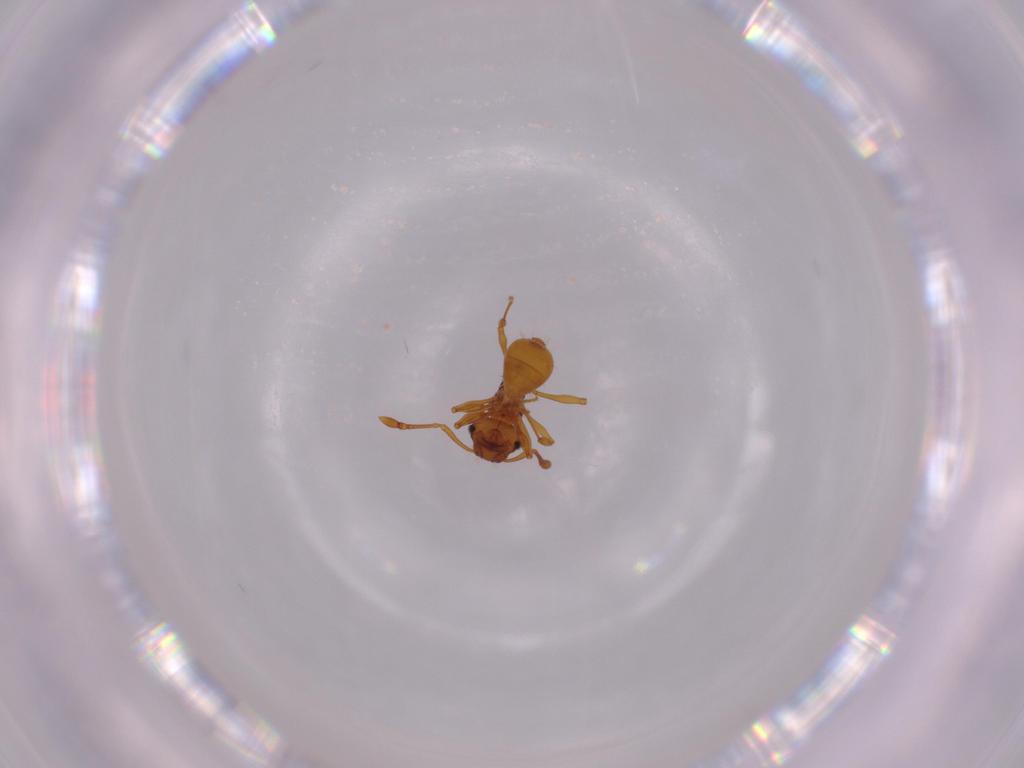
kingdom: Animalia
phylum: Arthropoda
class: Insecta
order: Hymenoptera
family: Formicidae
